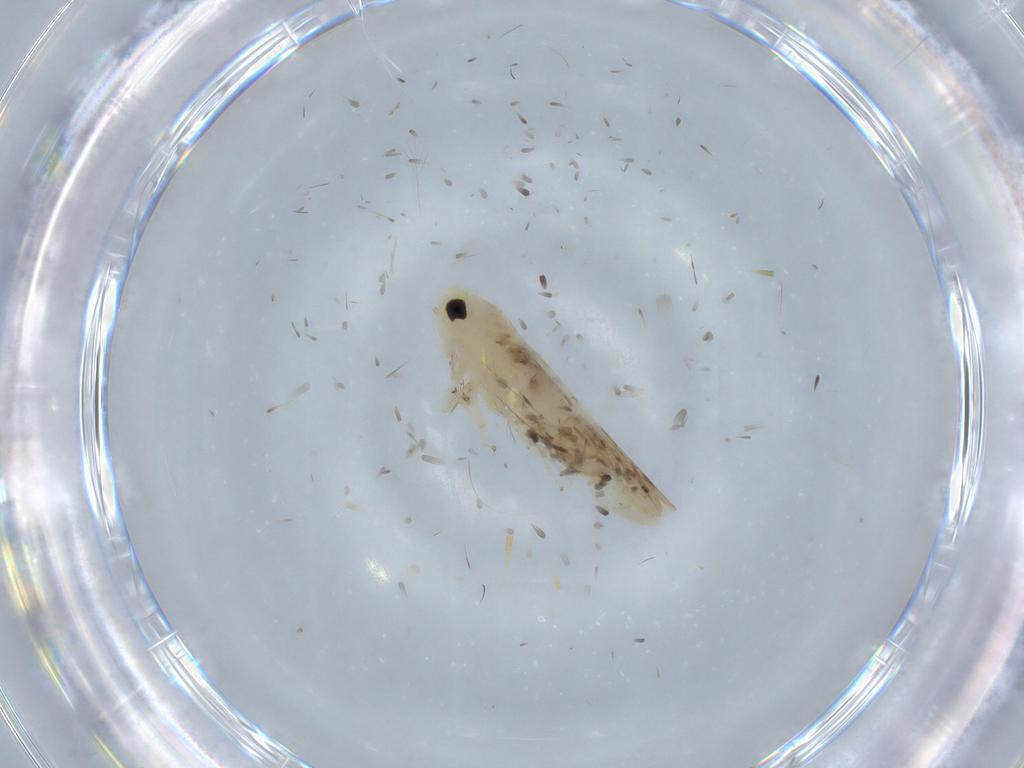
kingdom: Animalia
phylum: Arthropoda
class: Insecta
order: Hemiptera
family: Cicadellidae
